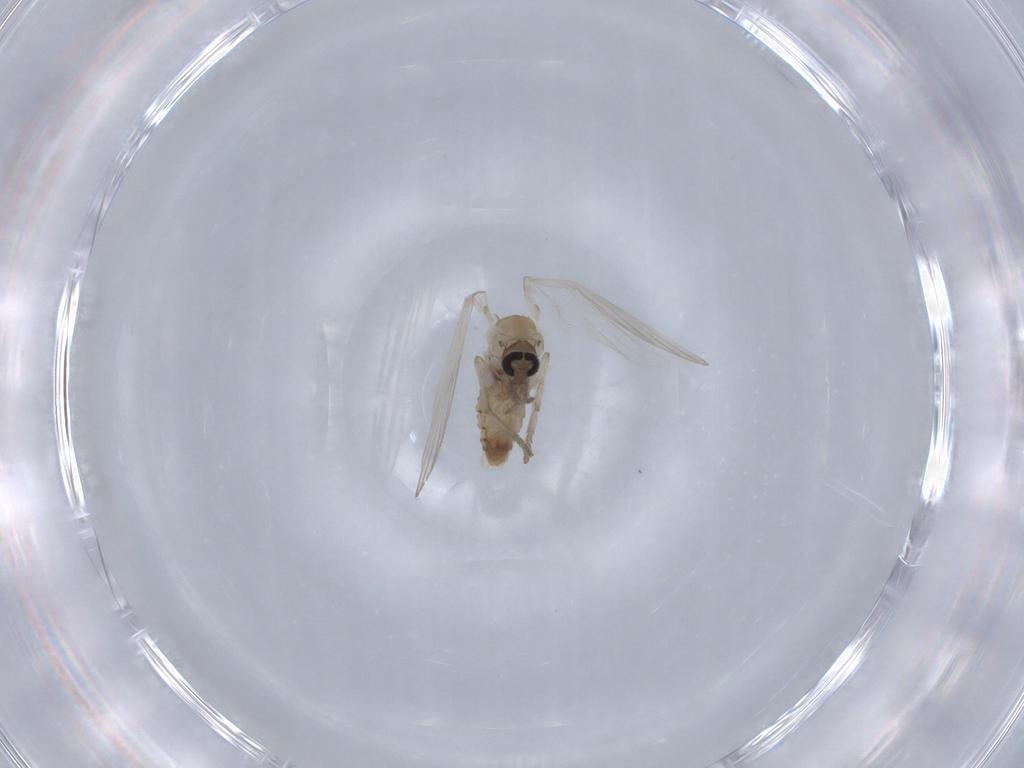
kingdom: Animalia
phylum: Arthropoda
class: Insecta
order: Diptera
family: Psychodidae
